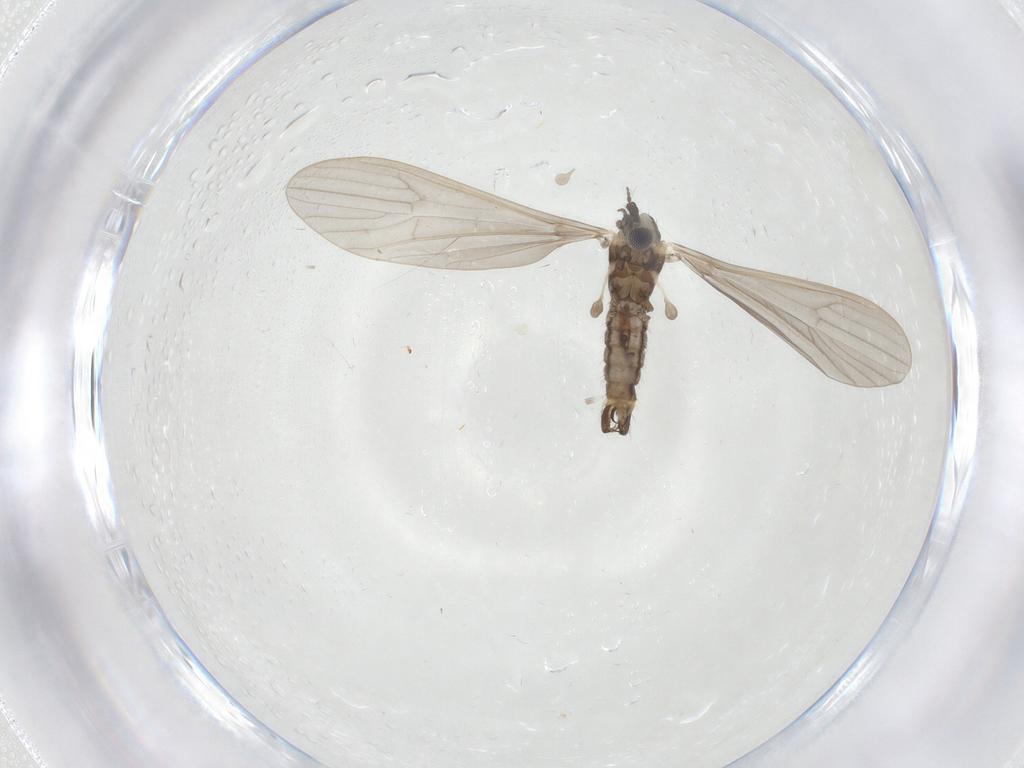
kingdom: Animalia
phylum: Arthropoda
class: Insecta
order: Diptera
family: Limoniidae
